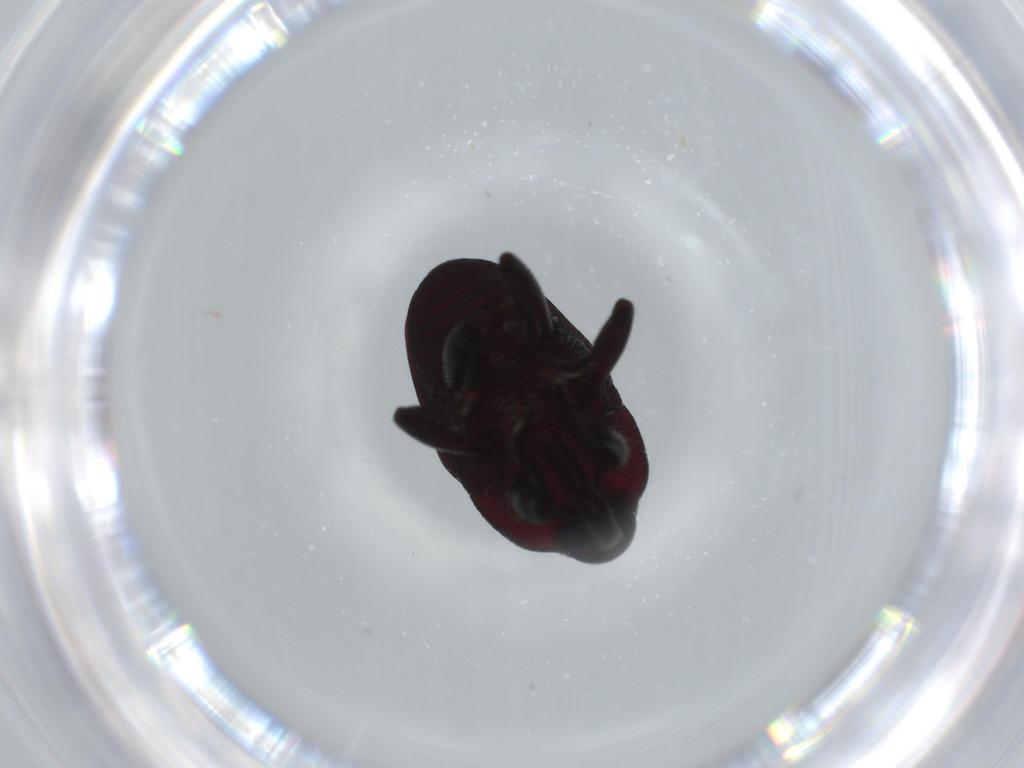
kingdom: Animalia
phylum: Arthropoda
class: Insecta
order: Coleoptera
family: Curculionidae
